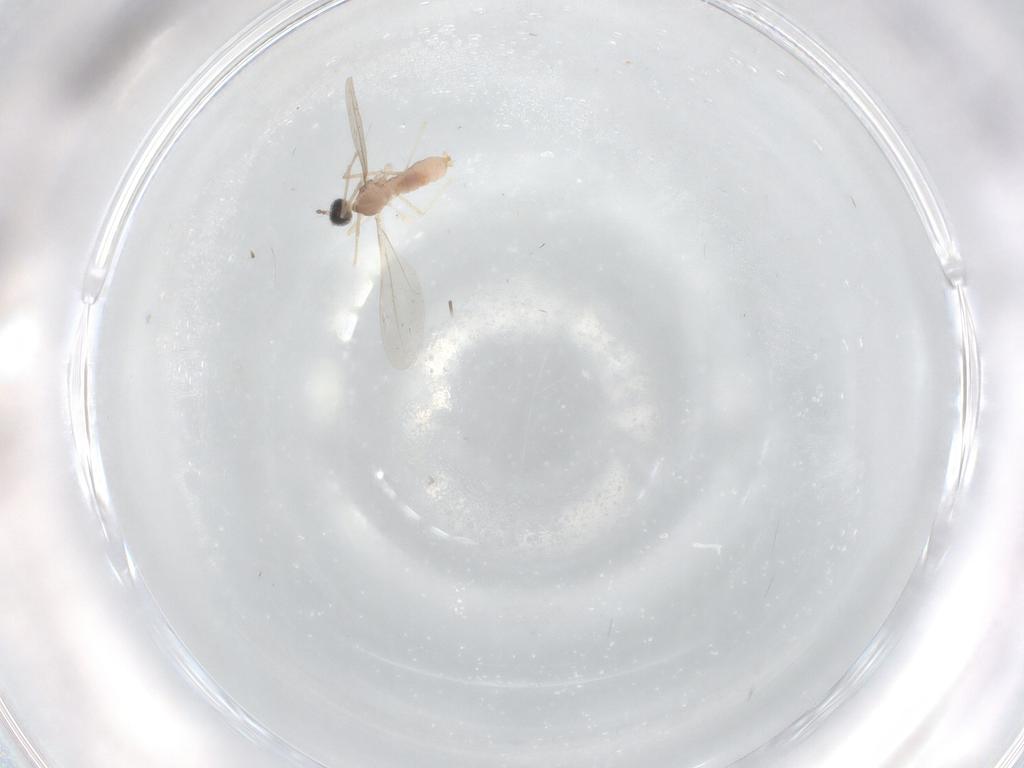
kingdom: Animalia
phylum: Arthropoda
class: Insecta
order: Diptera
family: Cecidomyiidae
